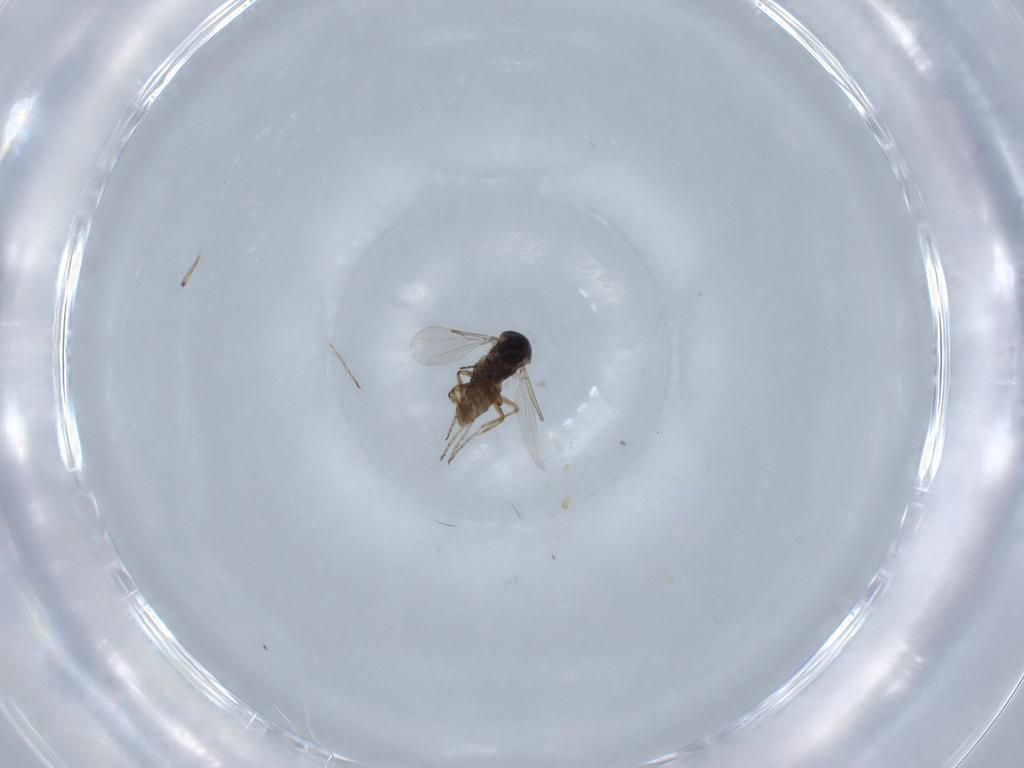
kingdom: Animalia
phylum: Arthropoda
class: Insecta
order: Diptera
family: Ceratopogonidae
